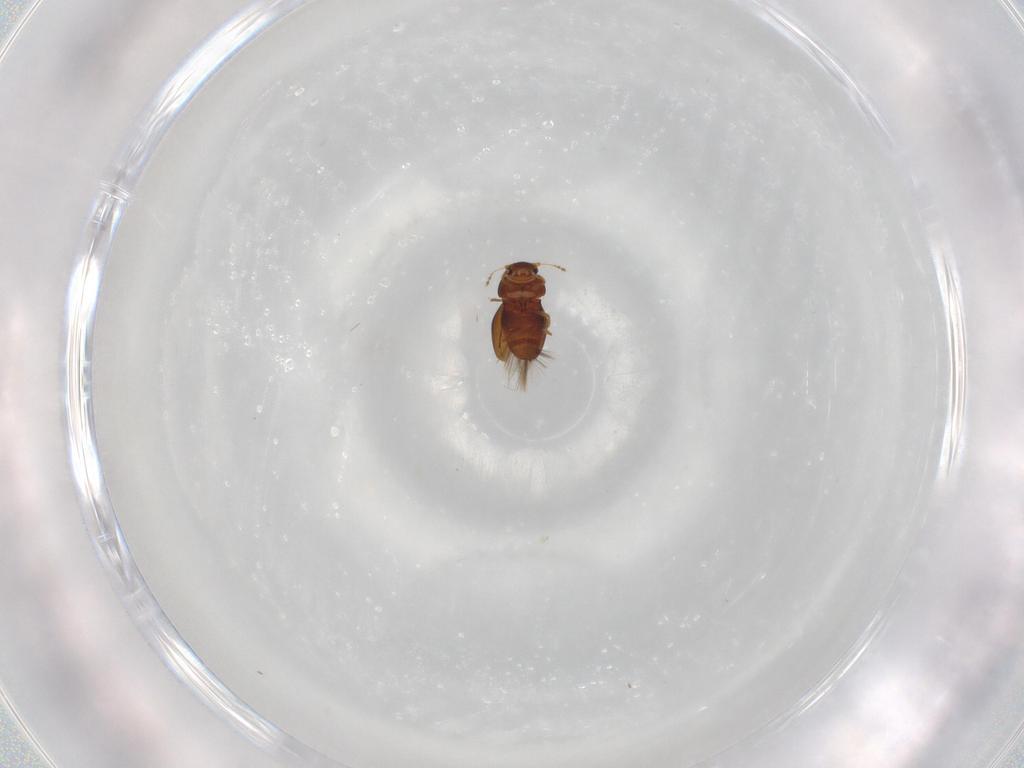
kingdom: Animalia
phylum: Arthropoda
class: Insecta
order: Coleoptera
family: Ptiliidae
